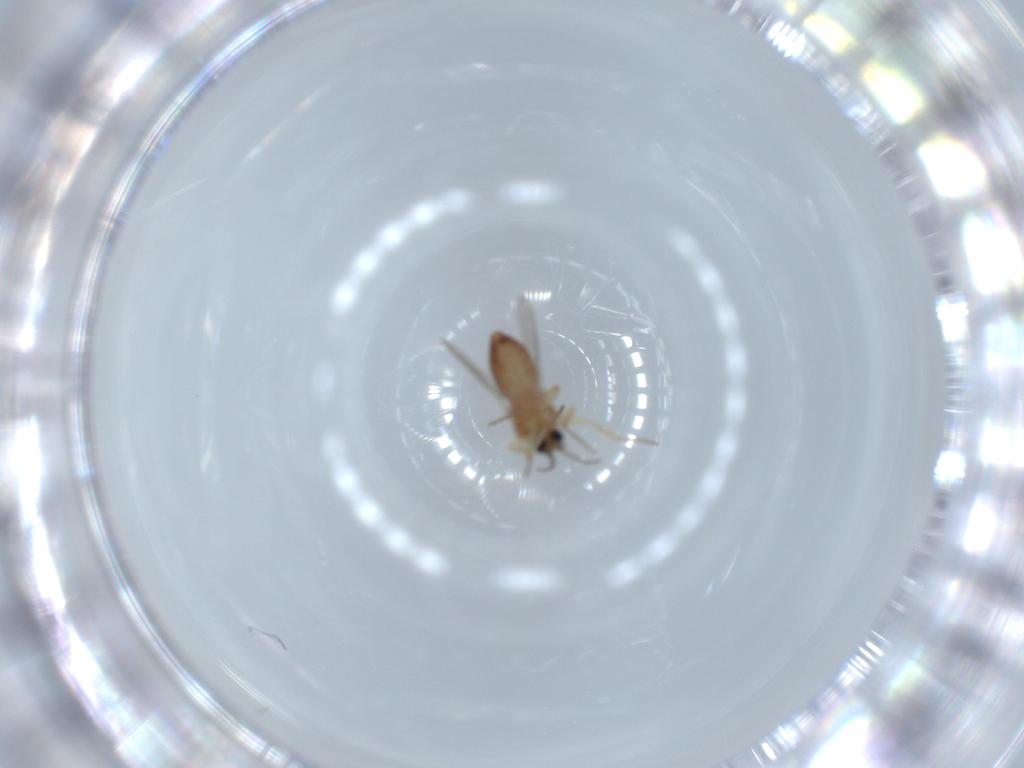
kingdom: Animalia
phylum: Arthropoda
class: Insecta
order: Diptera
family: Ceratopogonidae
